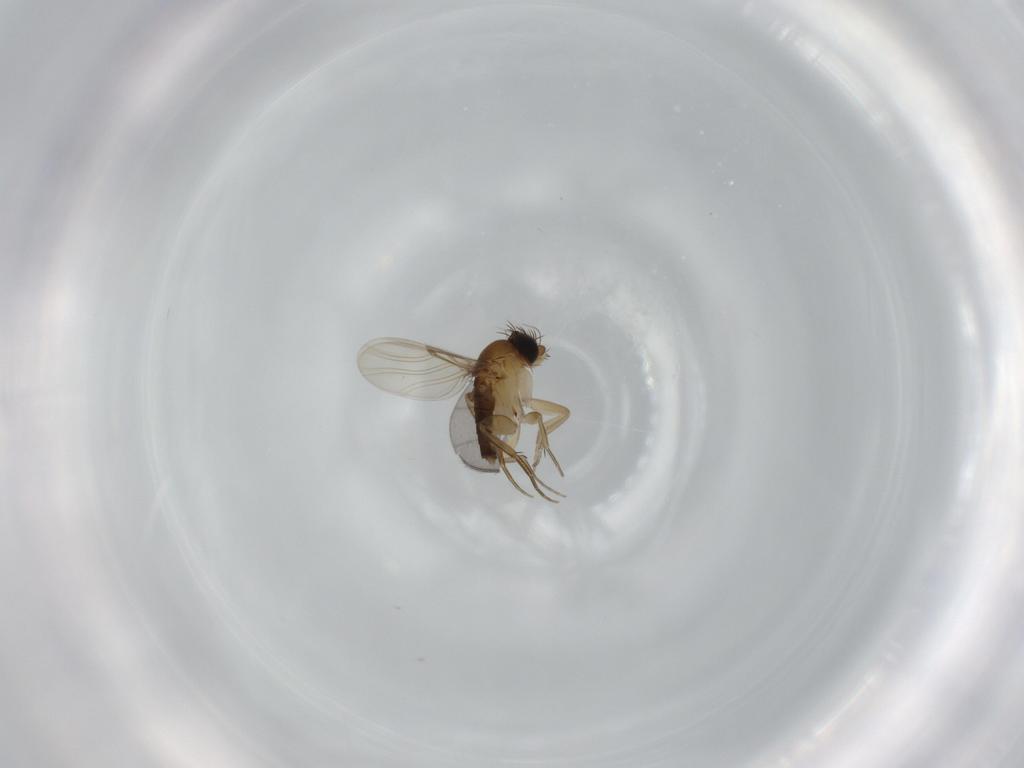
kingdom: Animalia
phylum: Arthropoda
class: Insecta
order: Diptera
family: Phoridae
